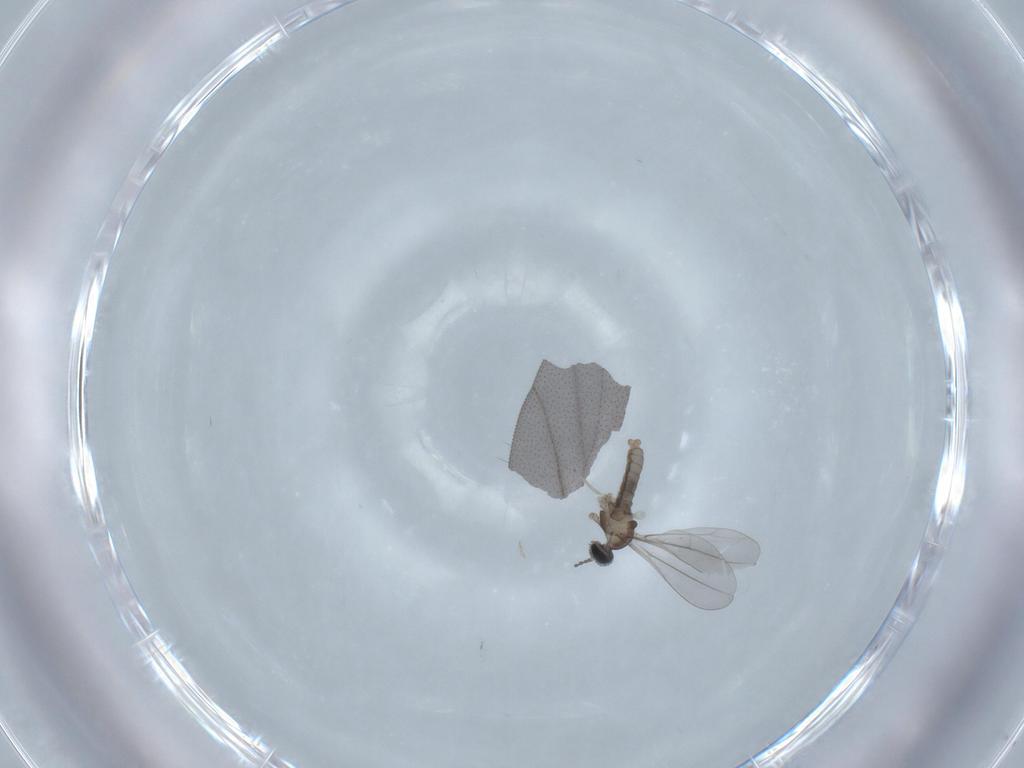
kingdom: Animalia
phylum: Arthropoda
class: Insecta
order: Diptera
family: Cecidomyiidae
